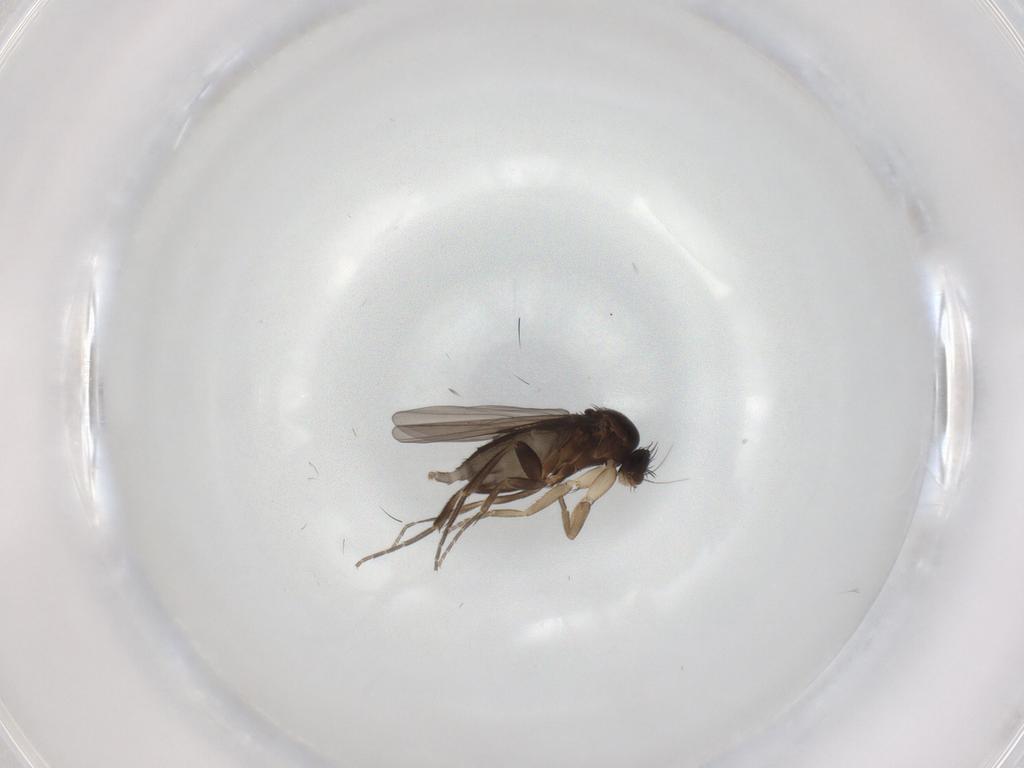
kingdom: Animalia
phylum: Arthropoda
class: Insecta
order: Diptera
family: Phoridae
